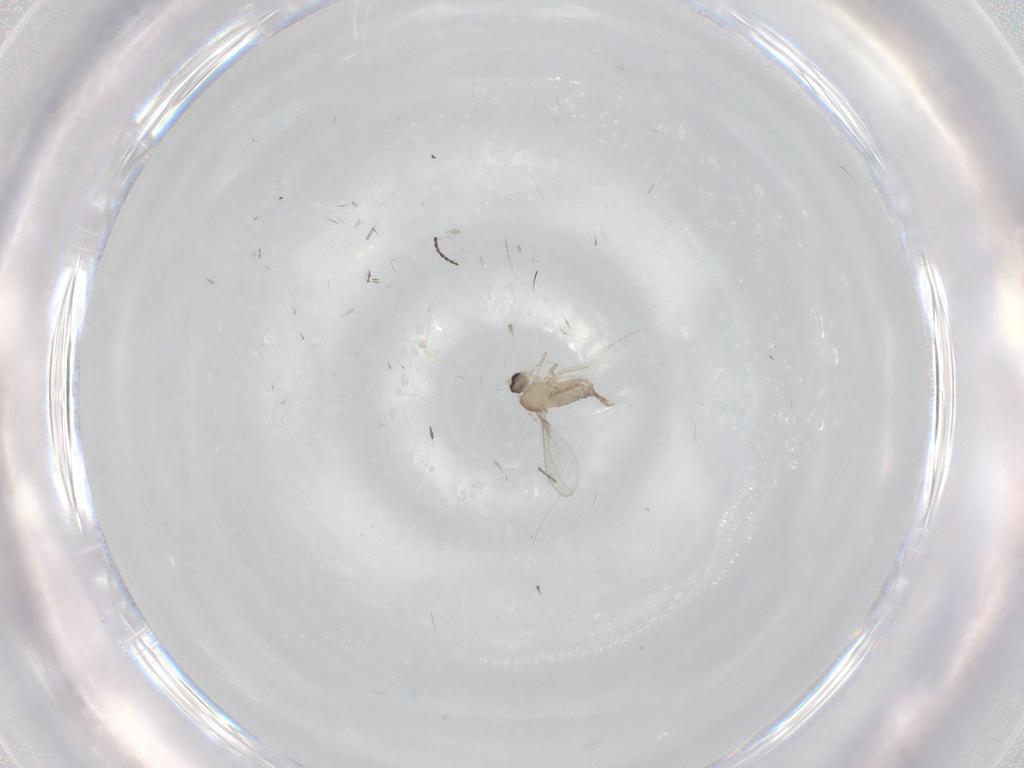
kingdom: Animalia
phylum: Arthropoda
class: Insecta
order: Diptera
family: Cecidomyiidae
